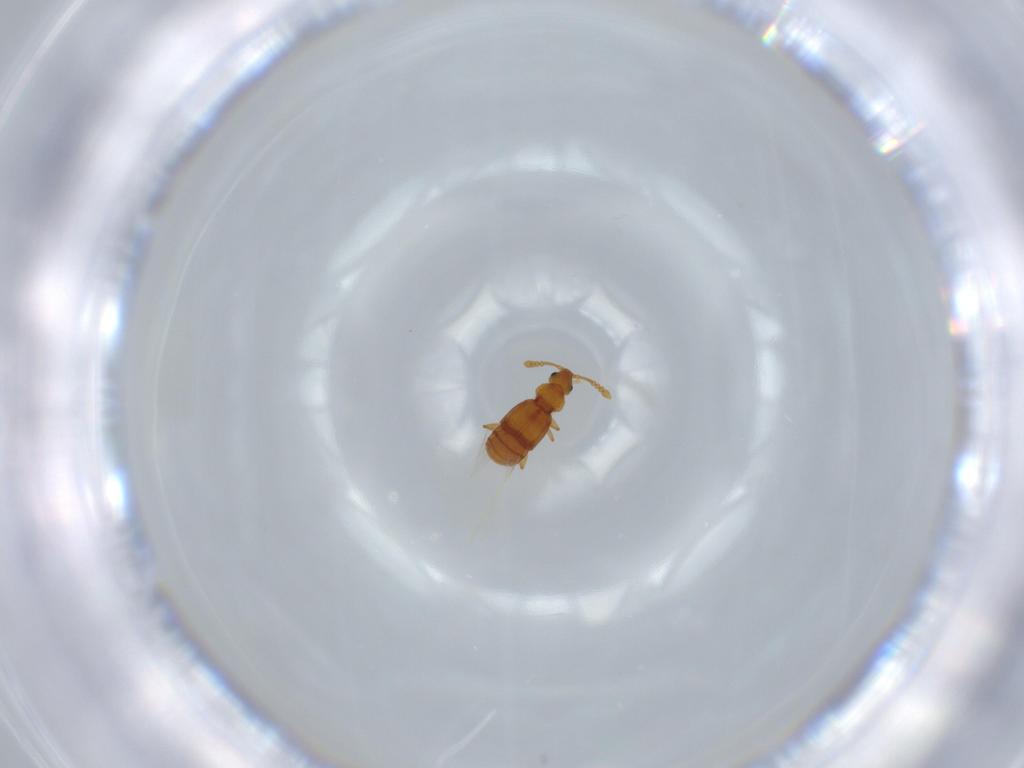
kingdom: Animalia
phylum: Arthropoda
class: Insecta
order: Coleoptera
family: Staphylinidae
